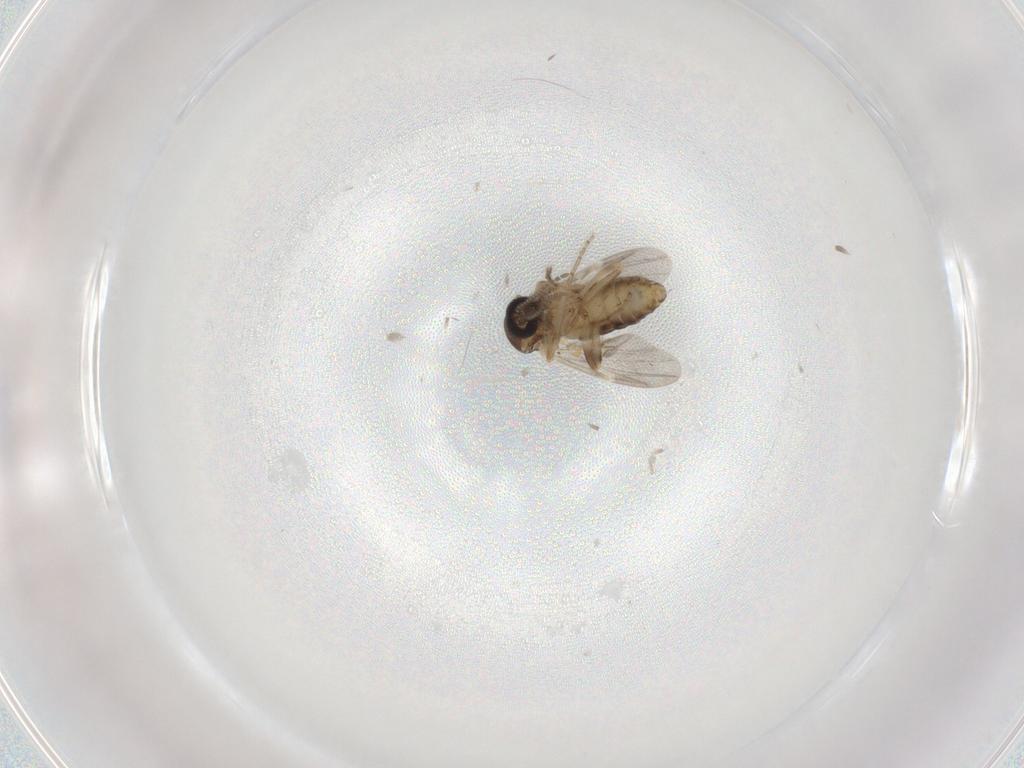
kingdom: Animalia
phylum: Arthropoda
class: Insecta
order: Diptera
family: Ceratopogonidae
